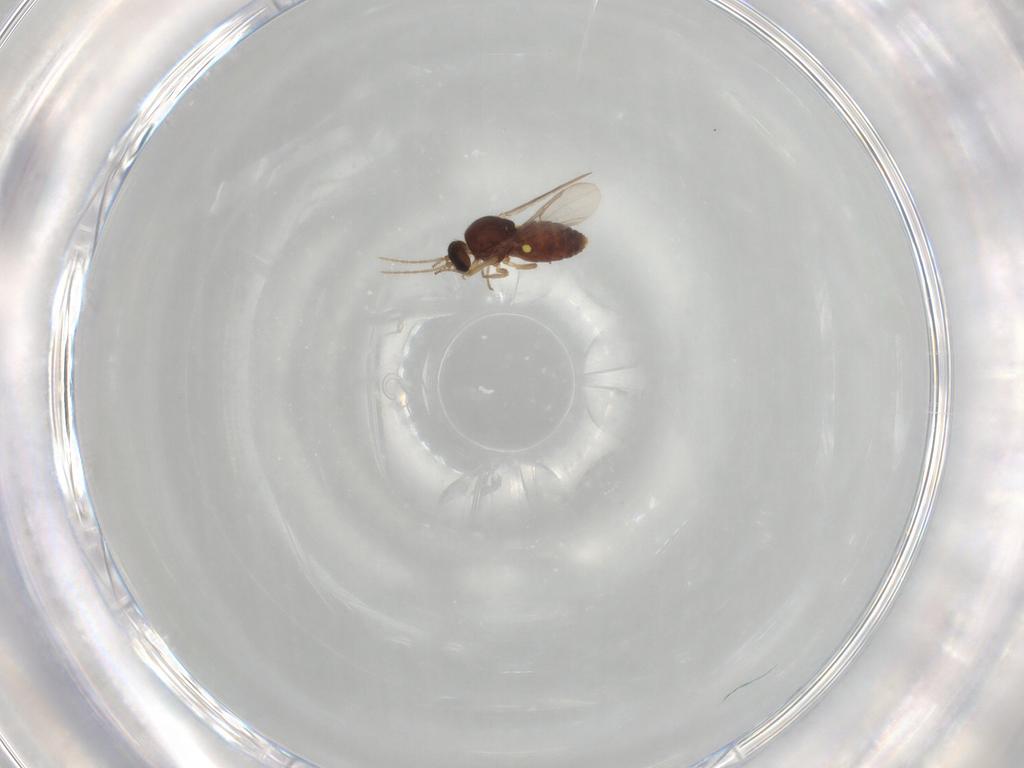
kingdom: Animalia
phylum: Arthropoda
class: Insecta
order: Diptera
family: Ceratopogonidae
